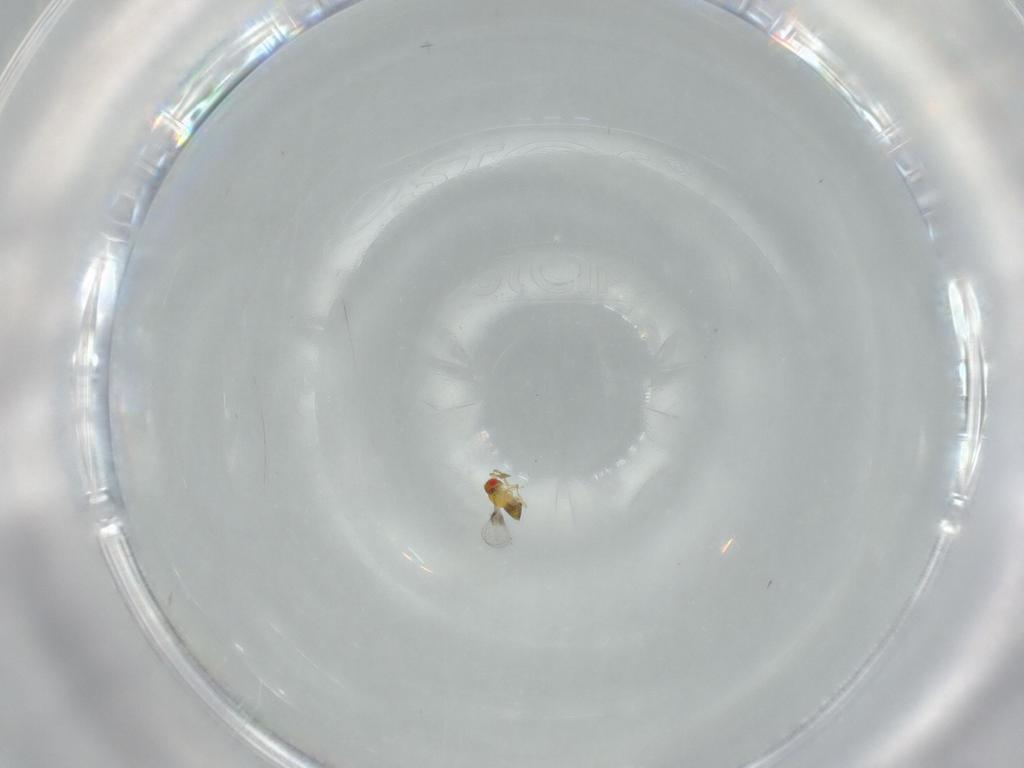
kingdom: Animalia
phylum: Arthropoda
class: Insecta
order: Hymenoptera
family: Trichogrammatidae
